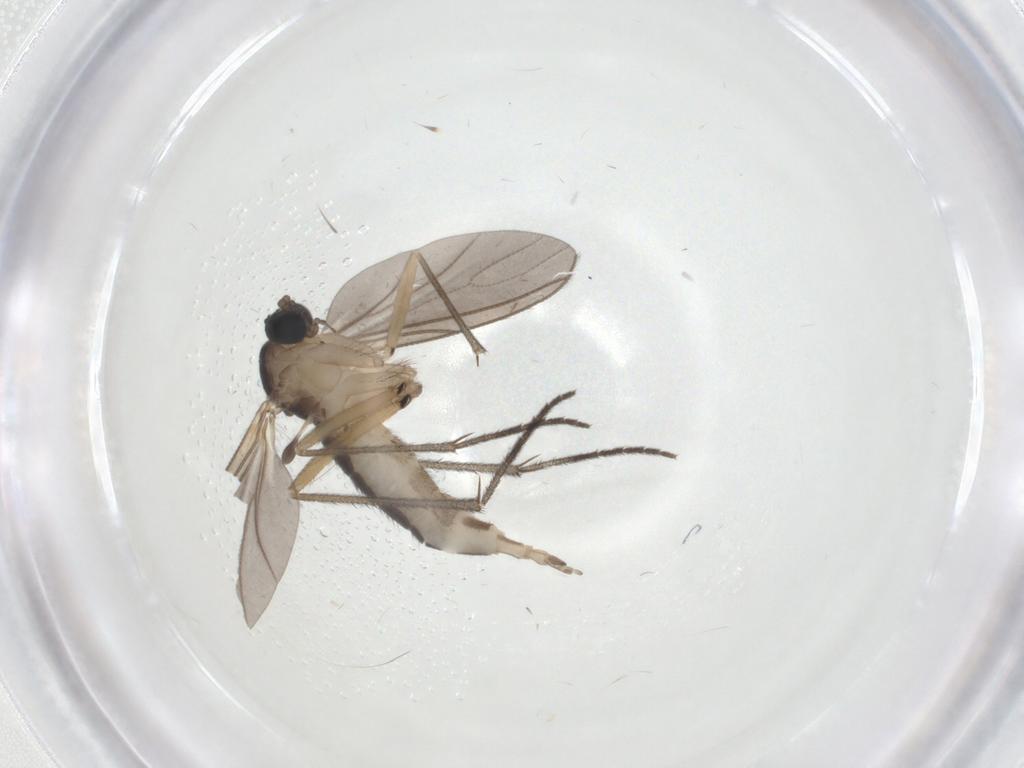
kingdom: Animalia
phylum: Arthropoda
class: Insecta
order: Diptera
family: Sciaridae
